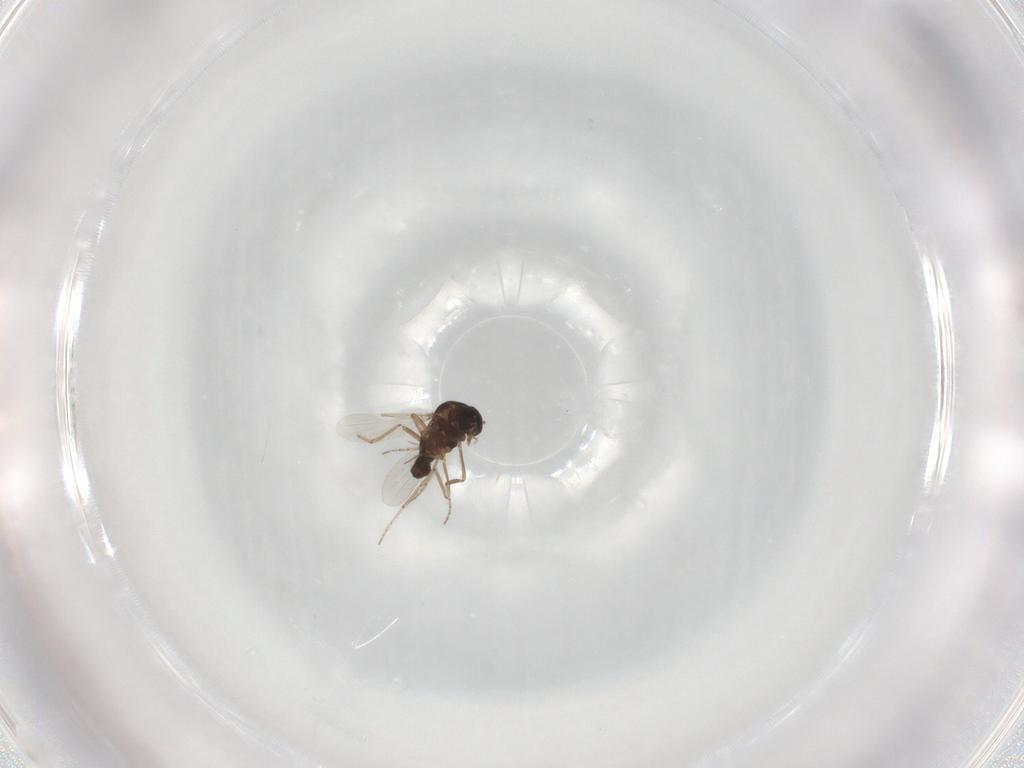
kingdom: Animalia
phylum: Arthropoda
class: Insecta
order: Diptera
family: Ceratopogonidae
